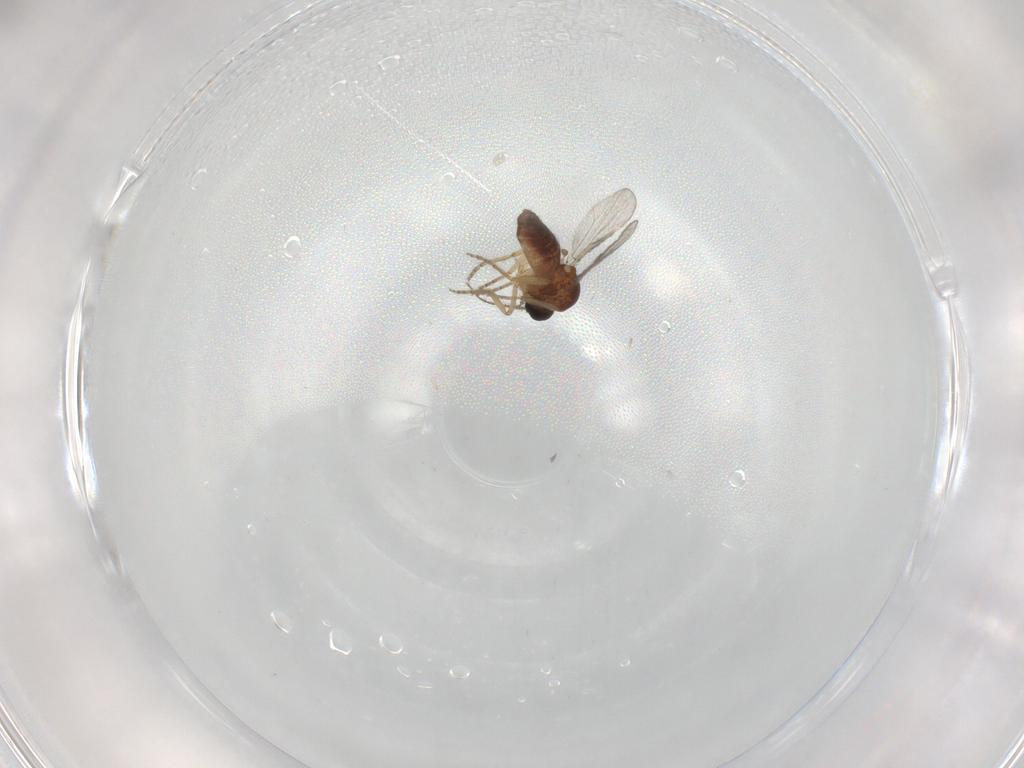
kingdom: Animalia
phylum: Arthropoda
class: Insecta
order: Diptera
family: Ceratopogonidae
